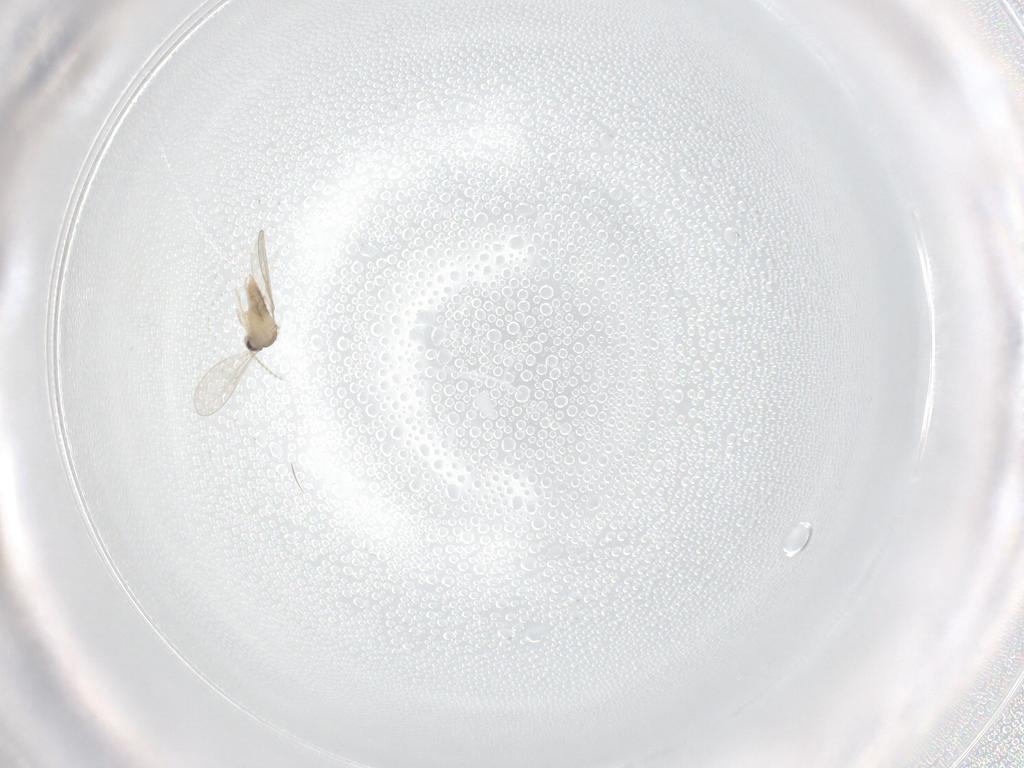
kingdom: Animalia
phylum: Arthropoda
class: Insecta
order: Diptera
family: Cecidomyiidae
